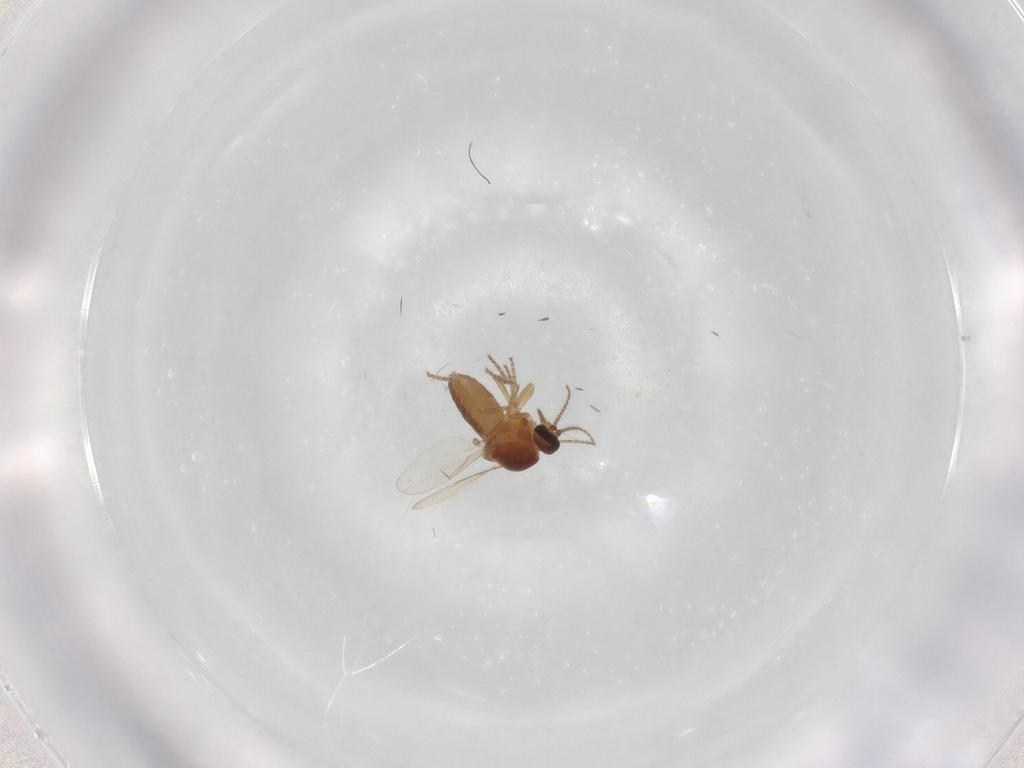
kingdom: Animalia
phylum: Arthropoda
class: Insecta
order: Diptera
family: Ceratopogonidae
